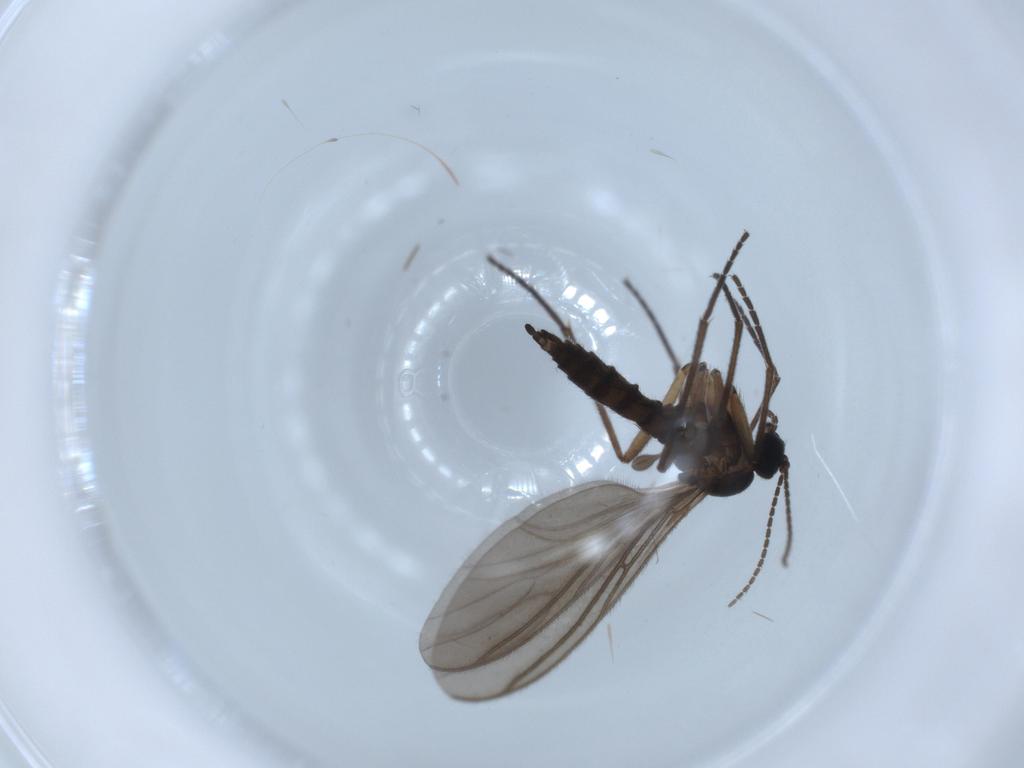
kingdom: Animalia
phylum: Arthropoda
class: Insecta
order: Diptera
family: Sciaridae
